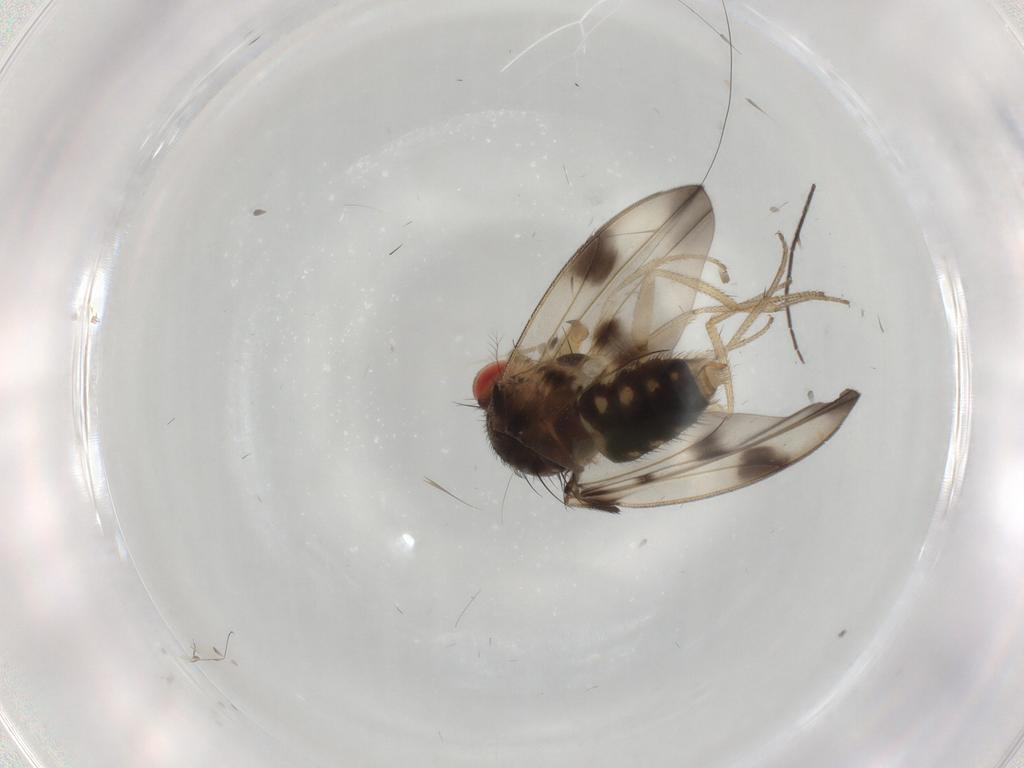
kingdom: Animalia
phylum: Arthropoda
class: Insecta
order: Diptera
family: Drosophilidae
